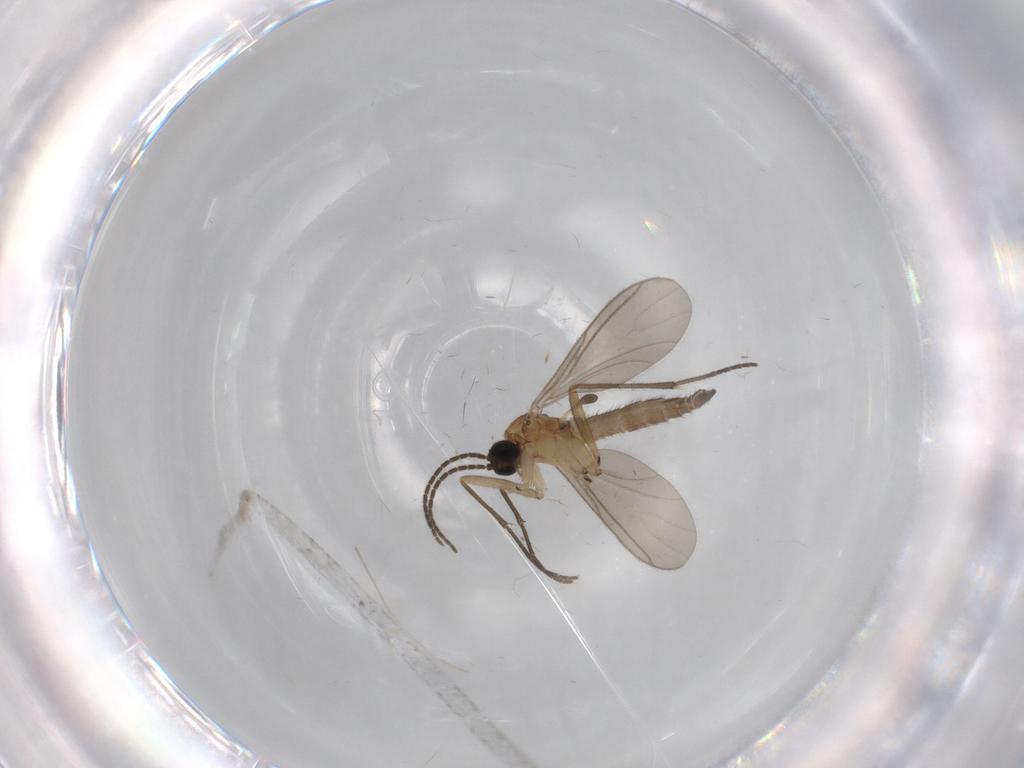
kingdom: Animalia
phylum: Arthropoda
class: Insecta
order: Diptera
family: Sciaridae
